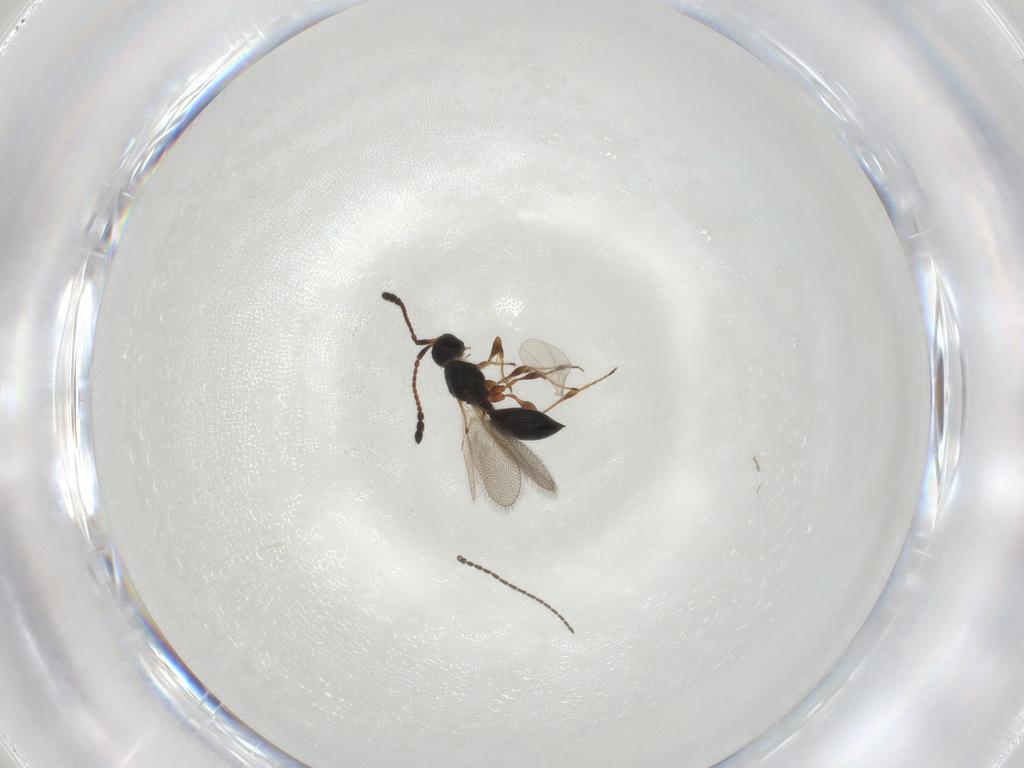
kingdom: Animalia
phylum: Arthropoda
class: Insecta
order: Hymenoptera
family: Diapriidae
